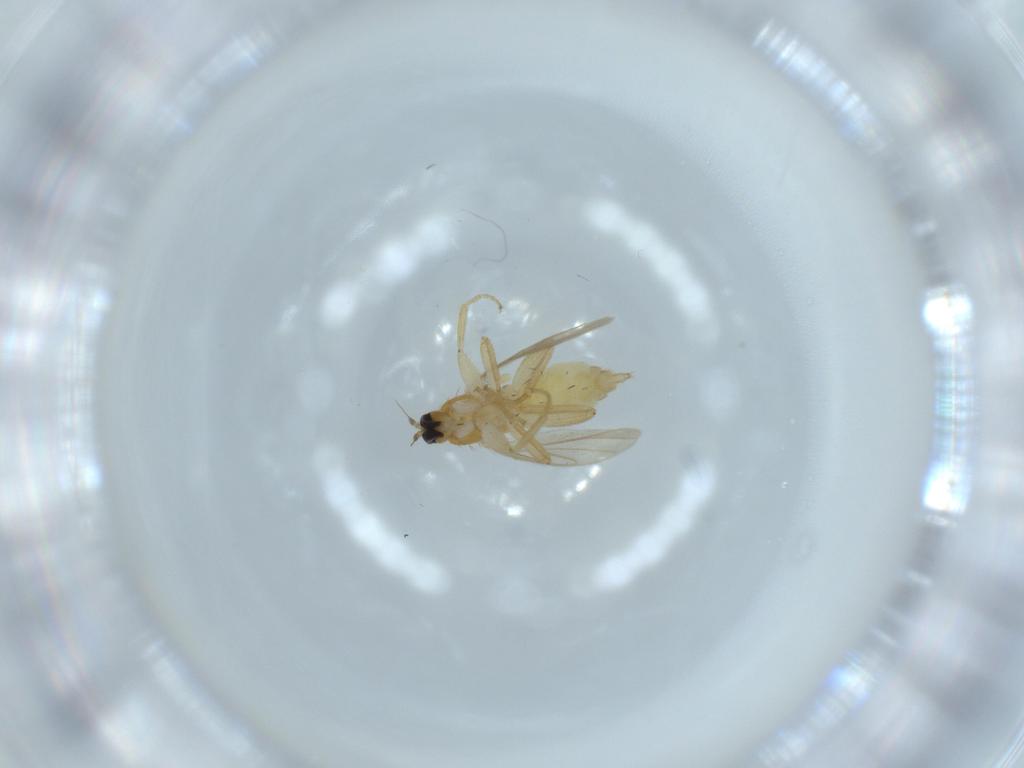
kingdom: Animalia
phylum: Arthropoda
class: Insecta
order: Diptera
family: Hybotidae
